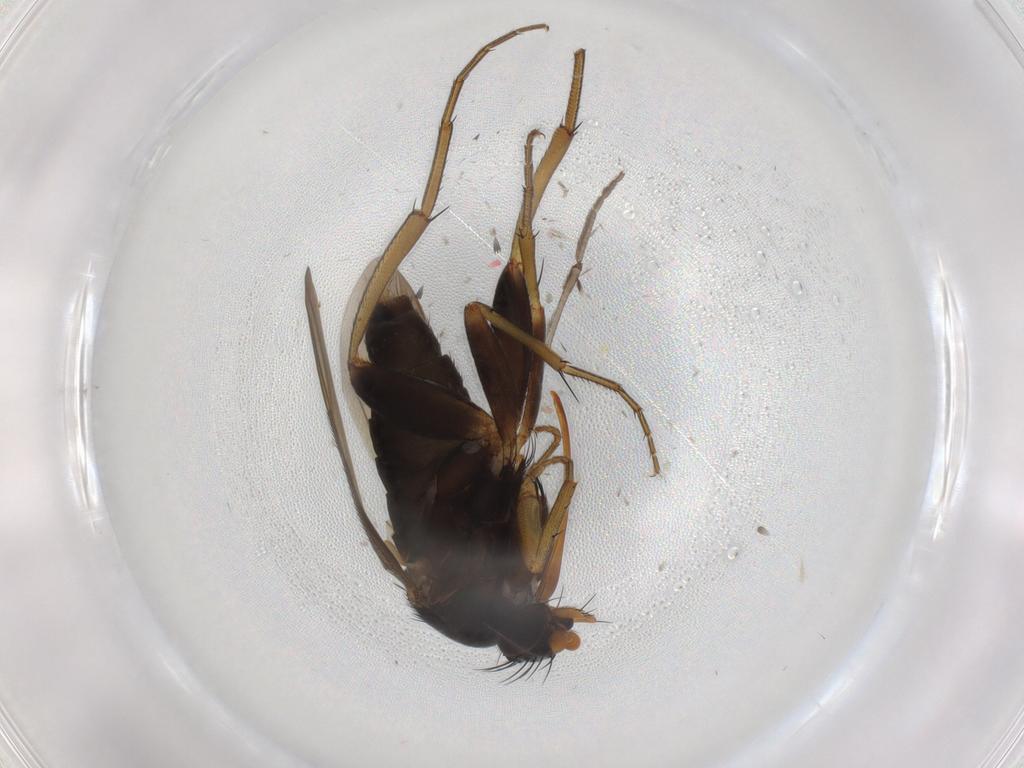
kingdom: Animalia
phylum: Arthropoda
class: Insecta
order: Diptera
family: Phoridae
